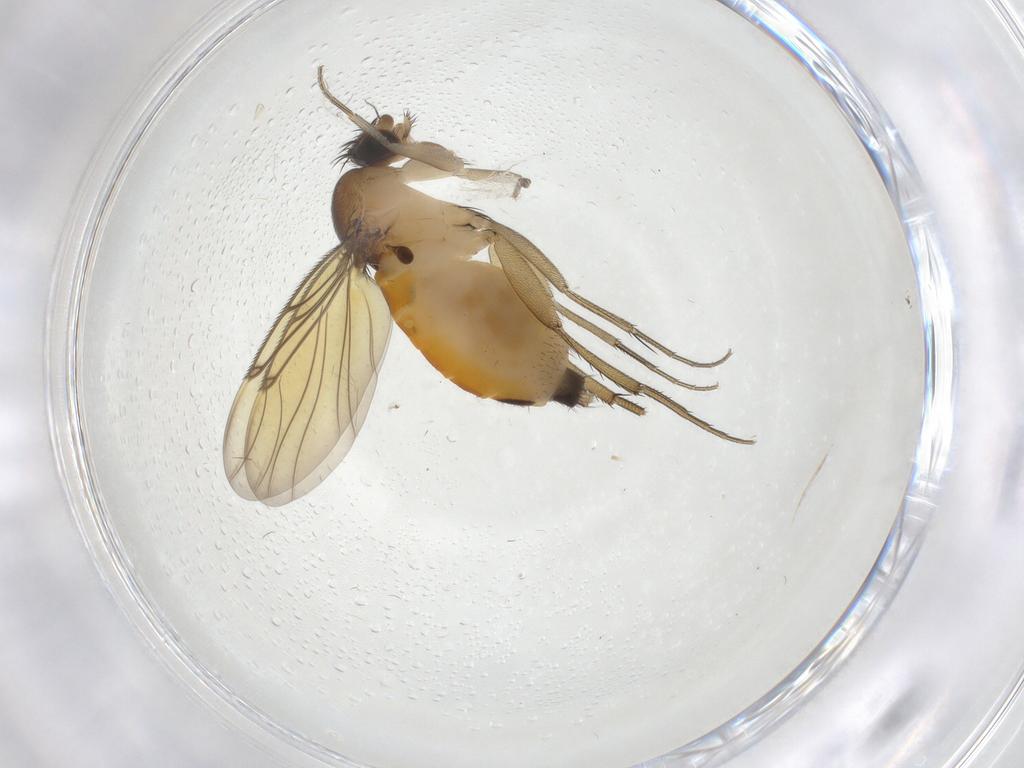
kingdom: Animalia
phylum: Arthropoda
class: Insecta
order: Diptera
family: Phoridae
